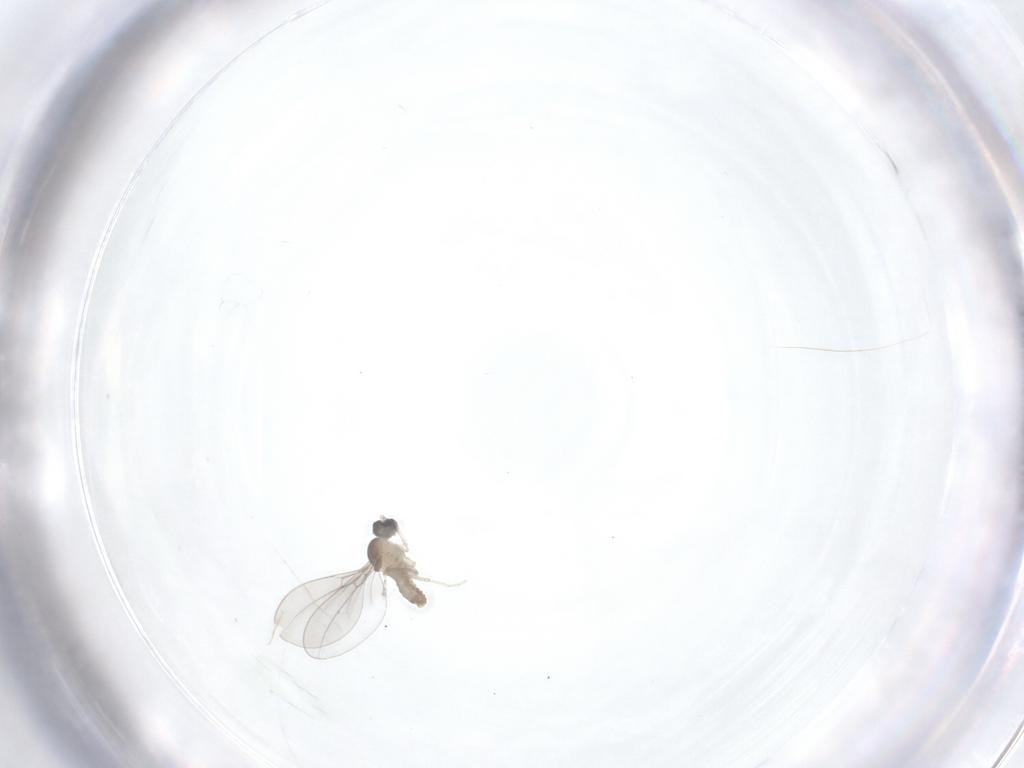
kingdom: Animalia
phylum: Arthropoda
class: Insecta
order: Diptera
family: Cecidomyiidae
